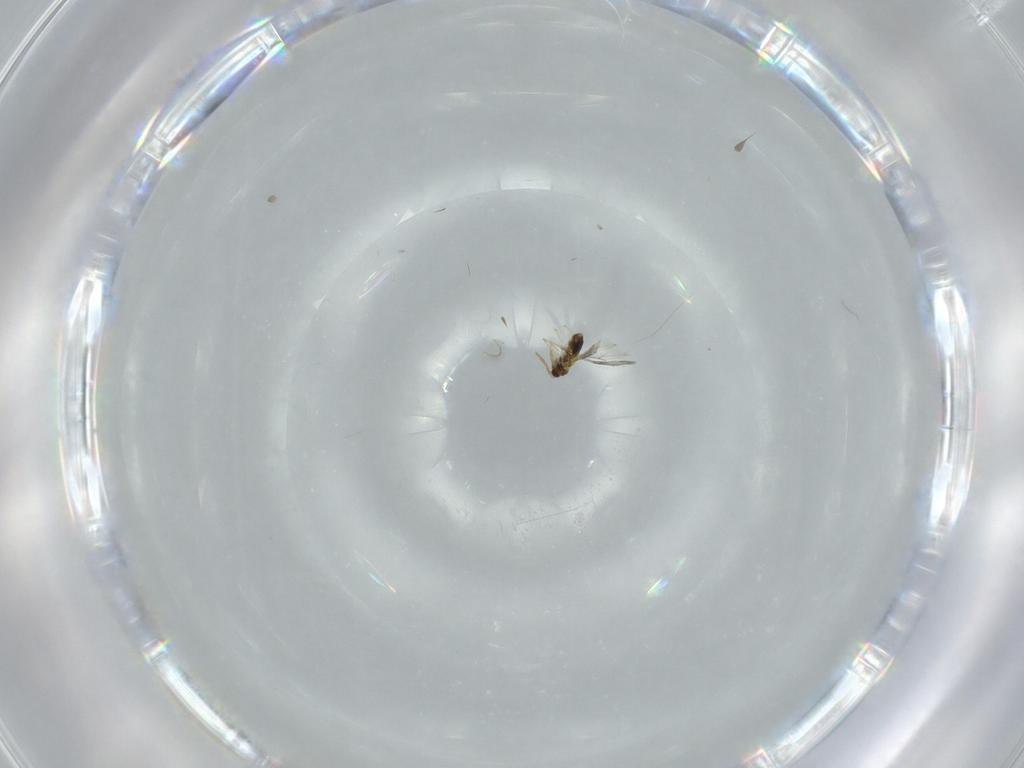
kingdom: Animalia
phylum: Arthropoda
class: Insecta
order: Hymenoptera
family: Aphelinidae
